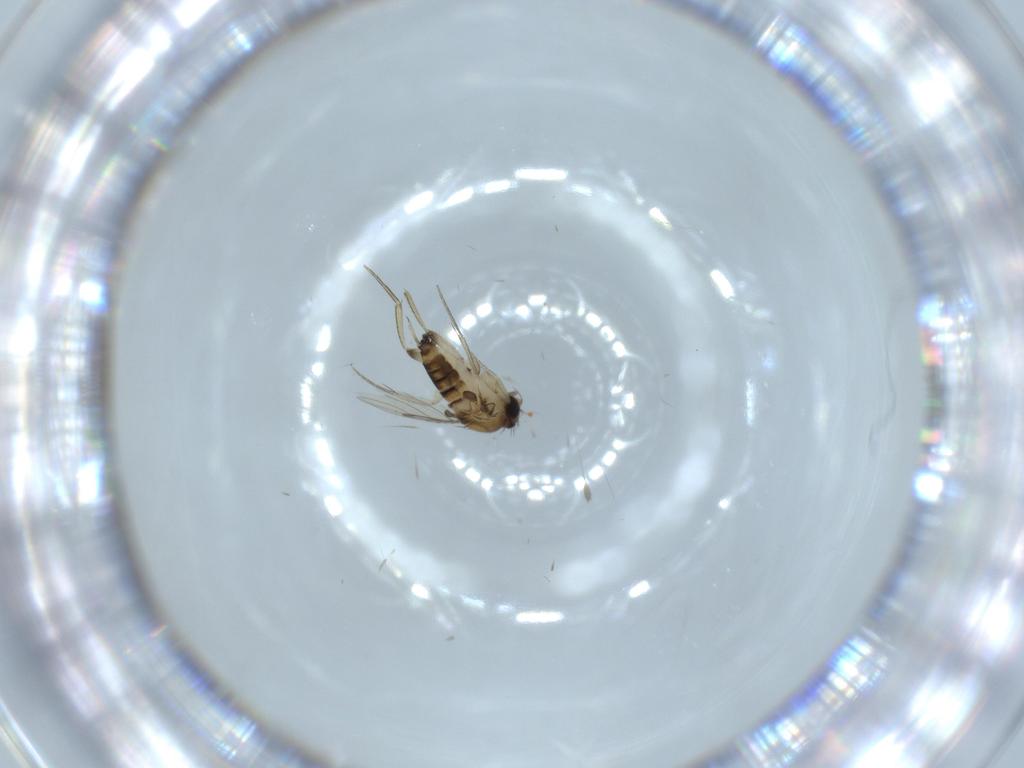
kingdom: Animalia
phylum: Arthropoda
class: Insecta
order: Diptera
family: Phoridae
